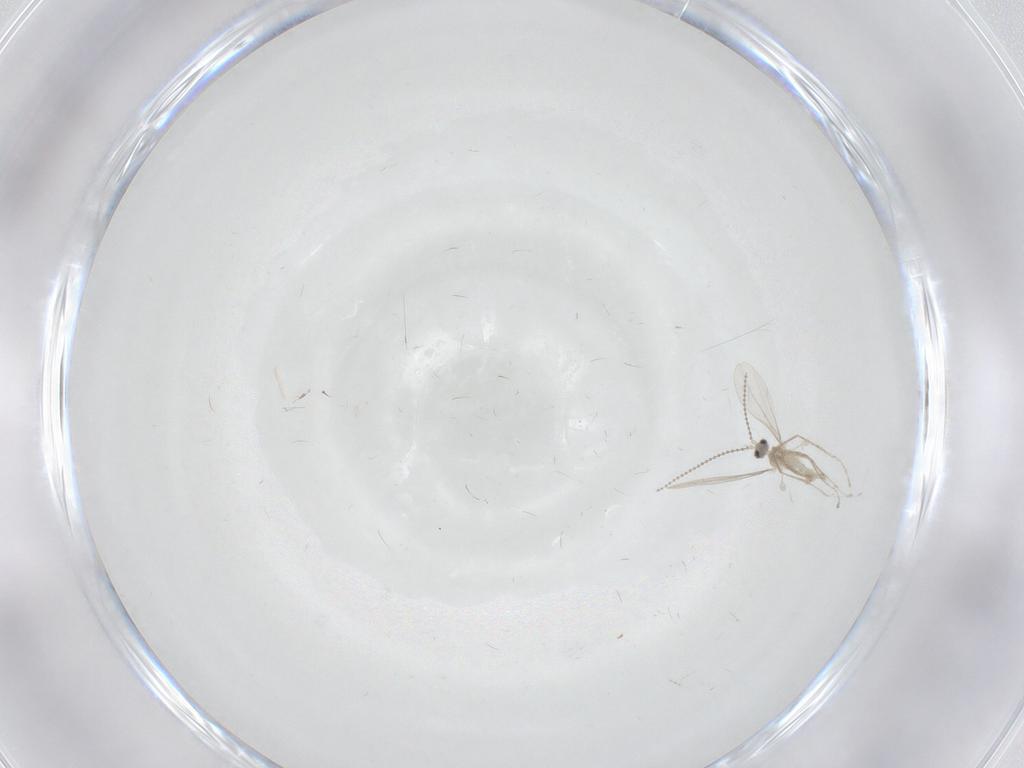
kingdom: Animalia
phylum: Arthropoda
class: Insecta
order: Diptera
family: Cecidomyiidae
